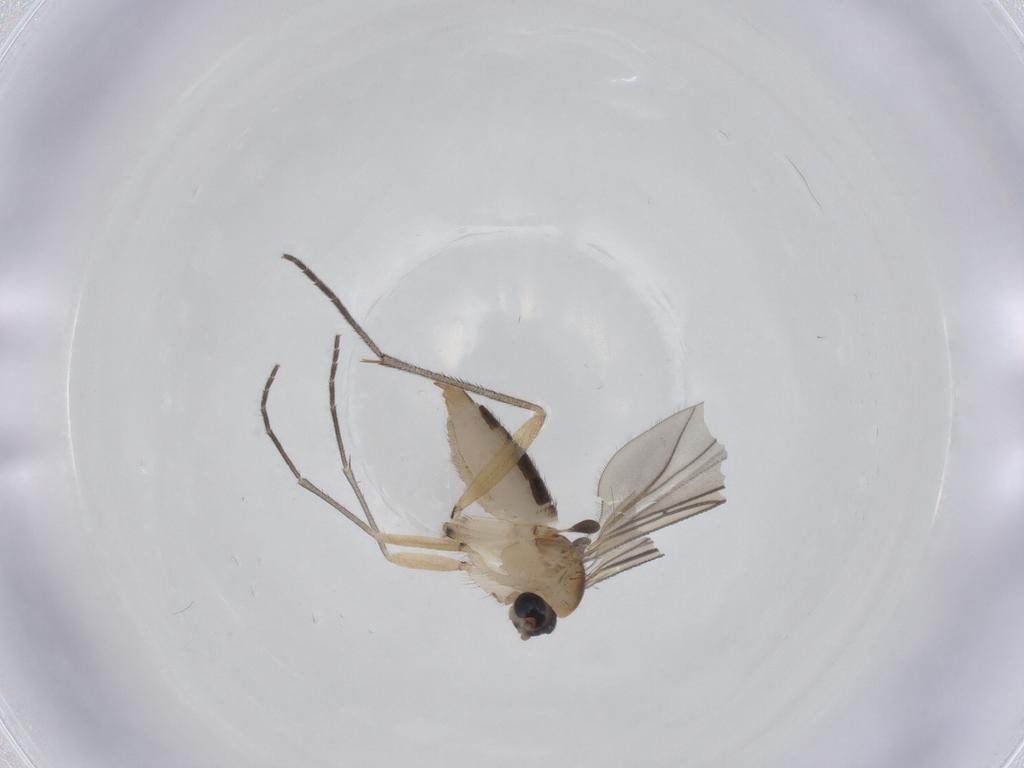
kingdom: Animalia
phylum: Arthropoda
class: Insecta
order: Diptera
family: Sciaridae
